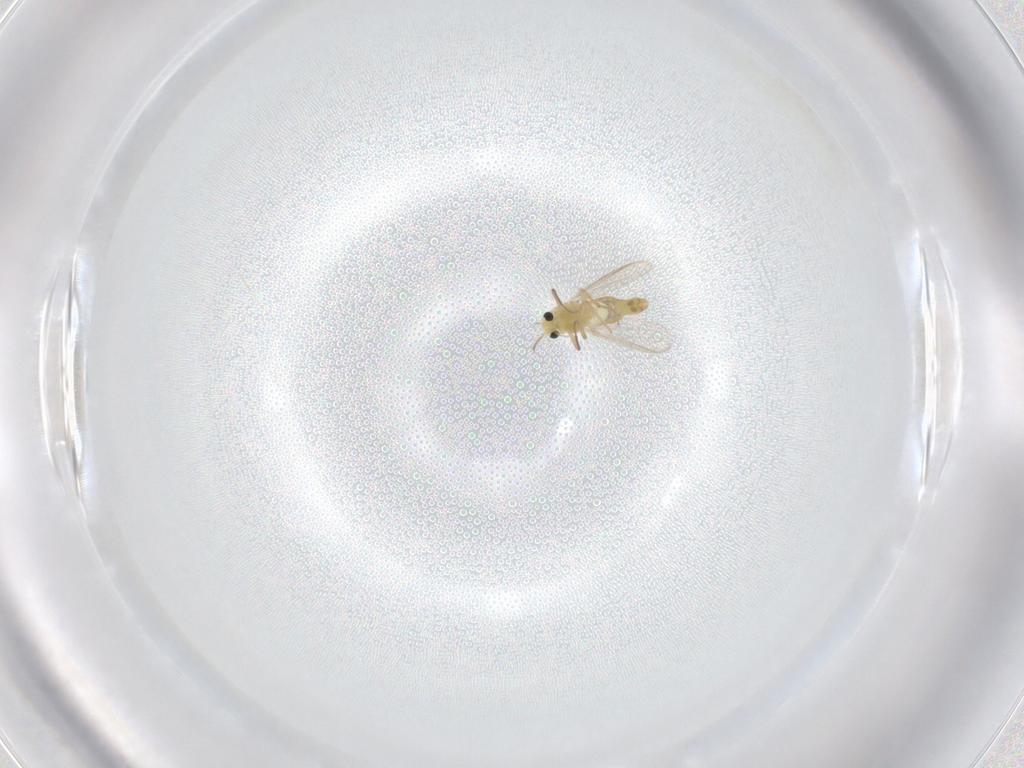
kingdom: Animalia
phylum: Arthropoda
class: Insecta
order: Diptera
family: Chironomidae
